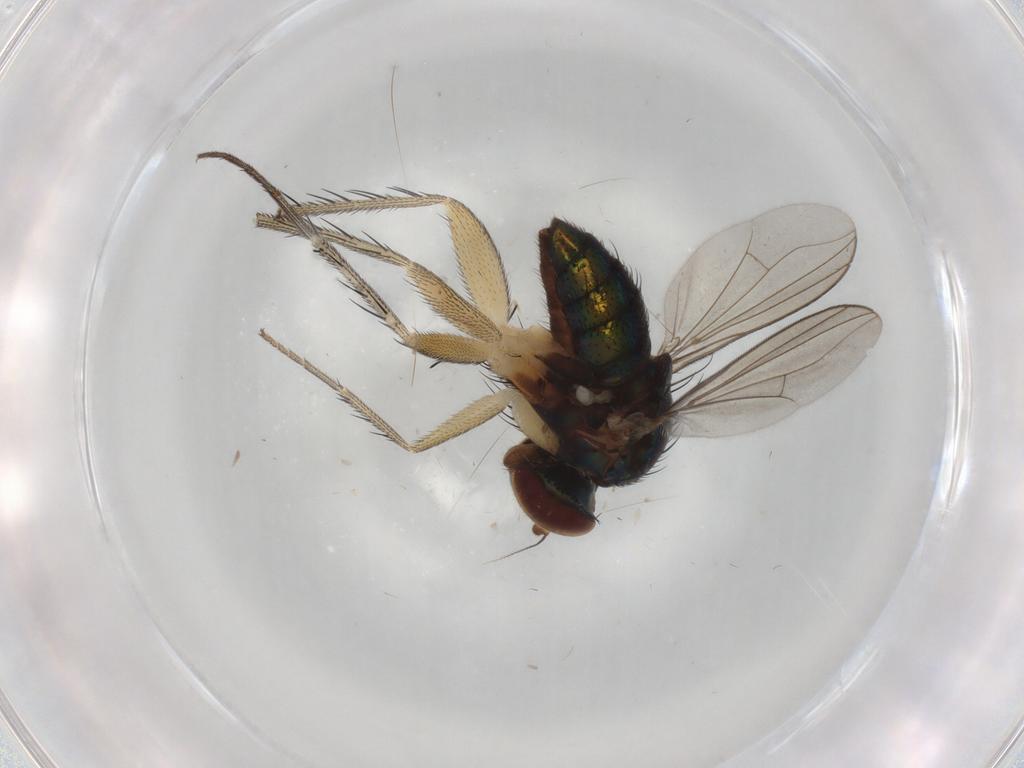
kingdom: Animalia
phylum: Arthropoda
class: Insecta
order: Diptera
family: Dolichopodidae
